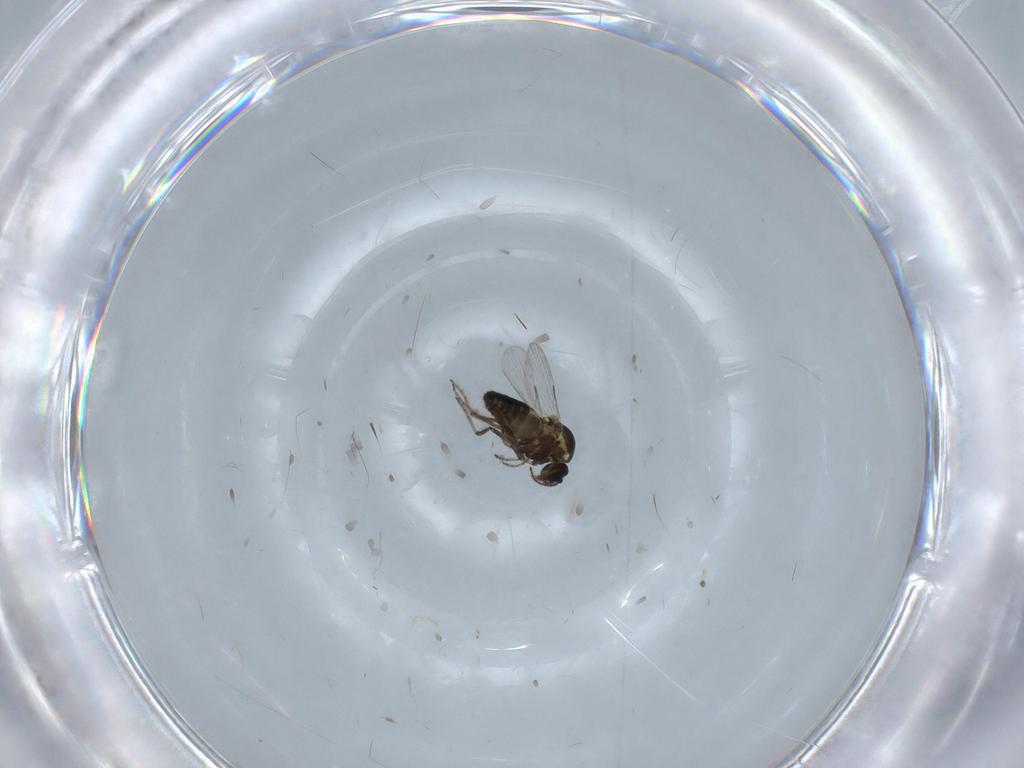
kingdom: Animalia
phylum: Arthropoda
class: Insecta
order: Diptera
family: Ceratopogonidae
